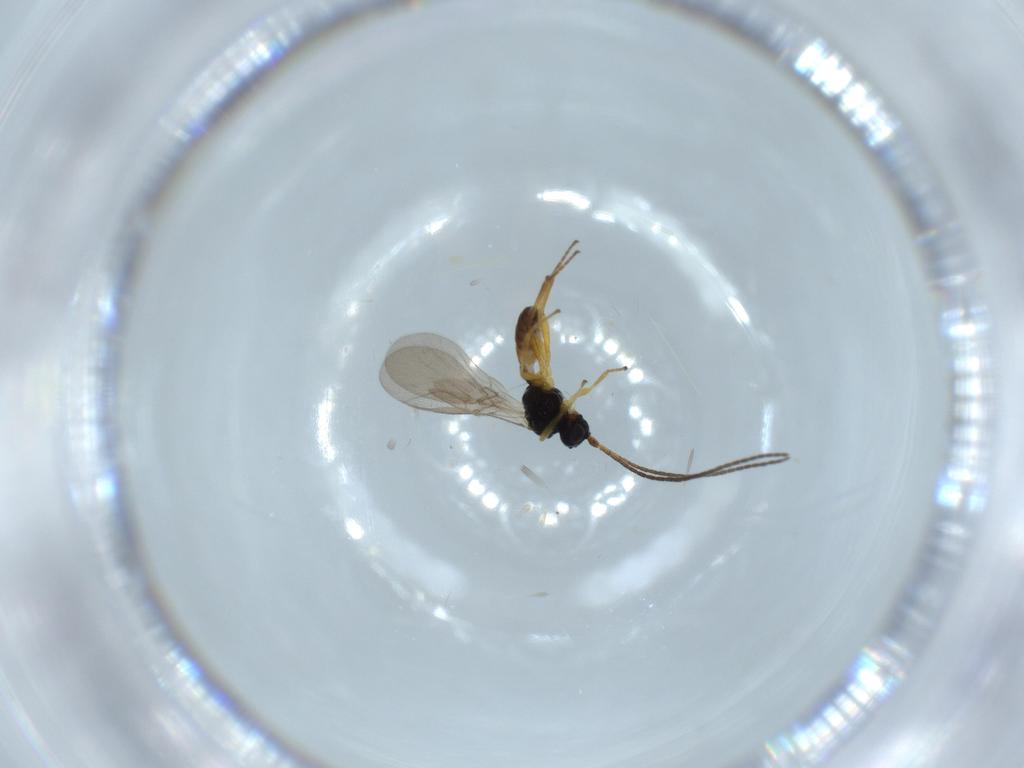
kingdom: Animalia
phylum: Arthropoda
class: Insecta
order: Hymenoptera
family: Braconidae
